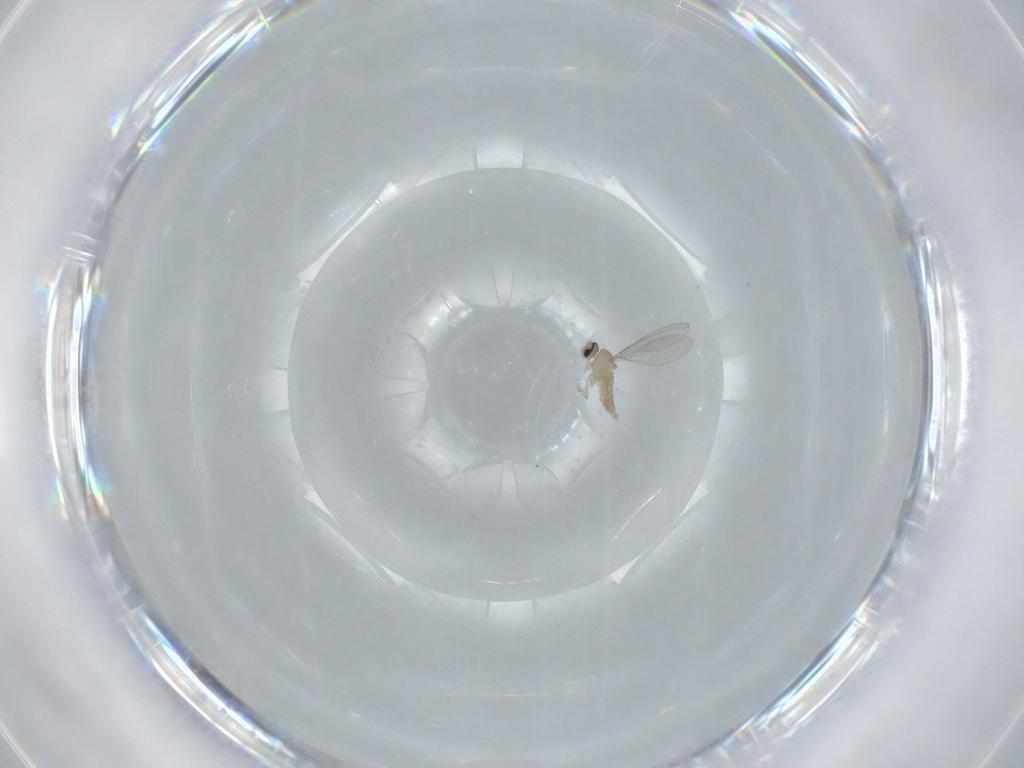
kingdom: Animalia
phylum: Arthropoda
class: Insecta
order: Diptera
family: Cecidomyiidae
